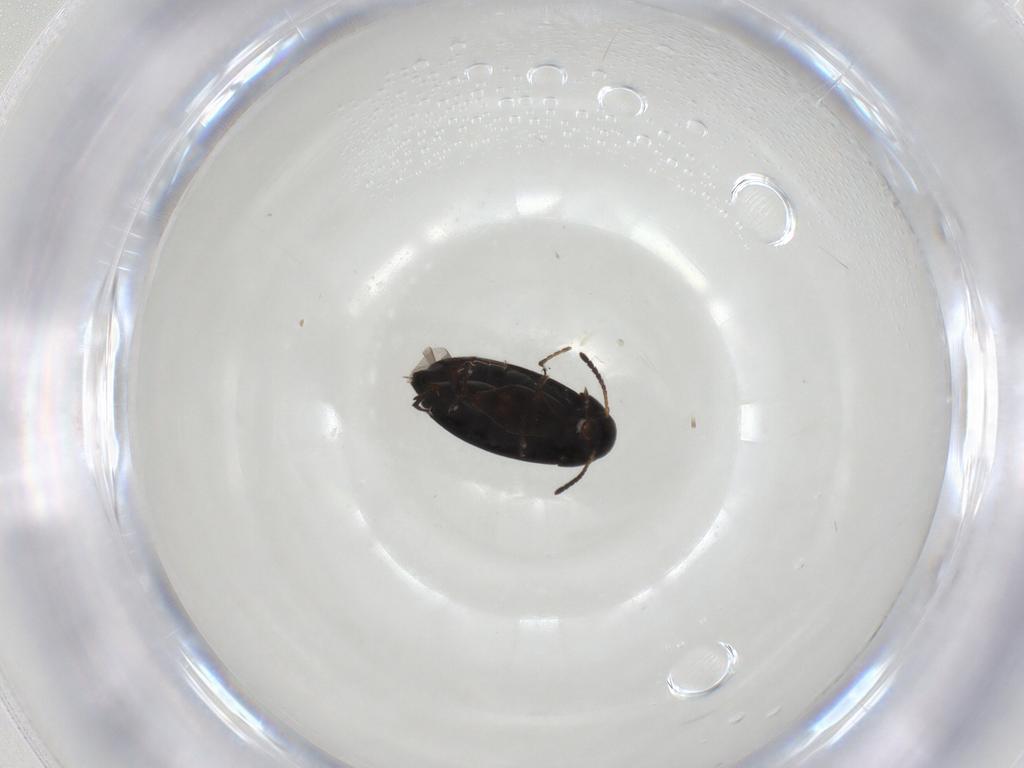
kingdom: Animalia
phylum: Arthropoda
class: Insecta
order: Coleoptera
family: Scraptiidae
